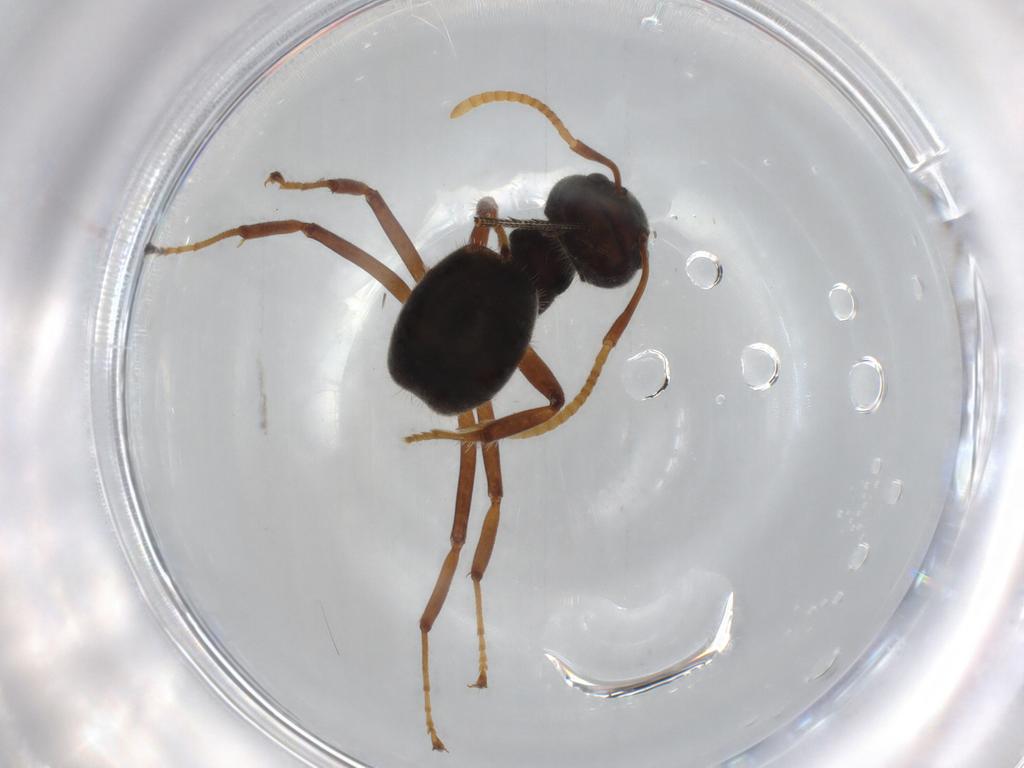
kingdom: Animalia
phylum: Arthropoda
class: Insecta
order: Hymenoptera
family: Formicidae
